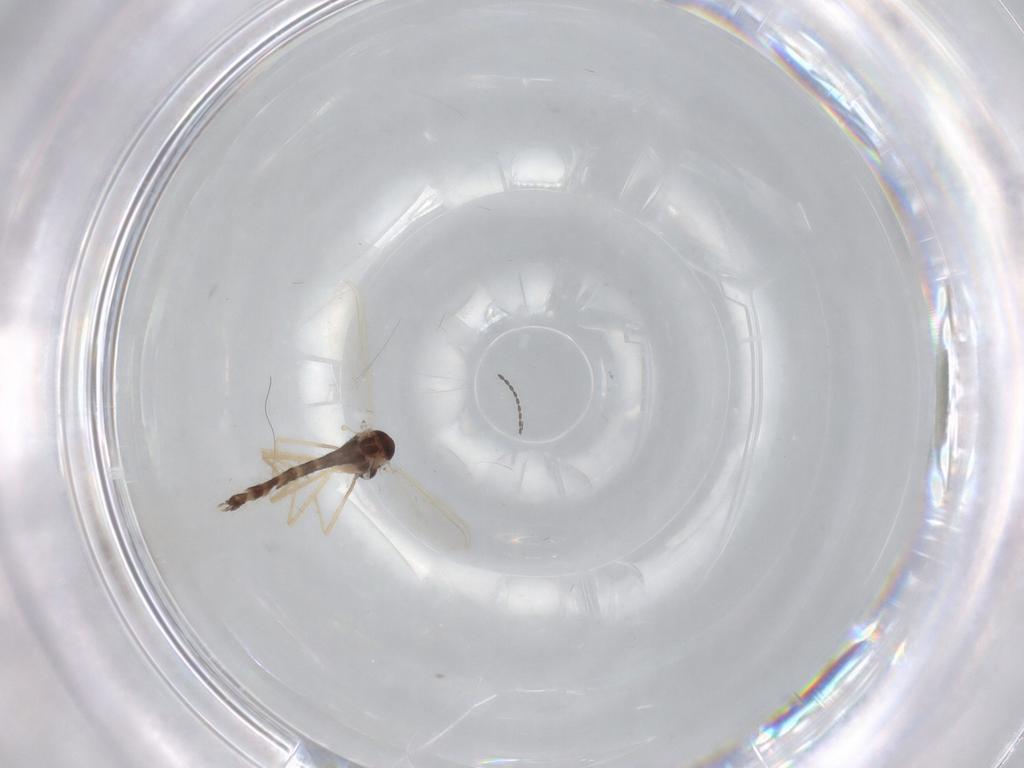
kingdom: Animalia
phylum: Arthropoda
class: Insecta
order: Diptera
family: Chironomidae
